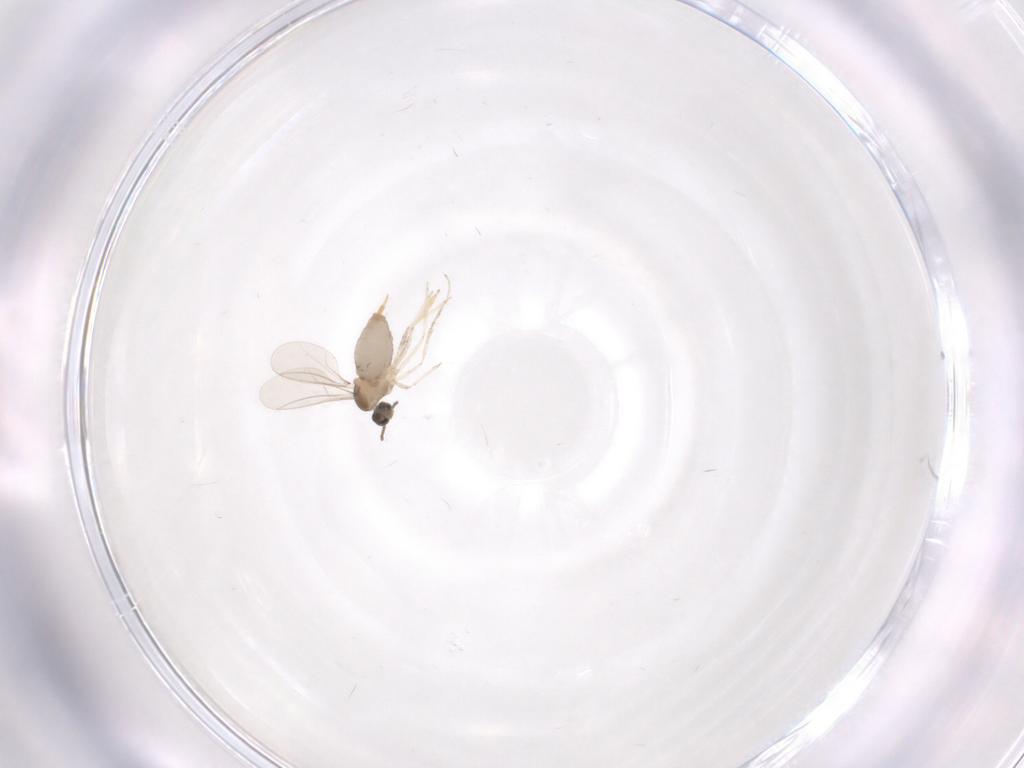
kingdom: Animalia
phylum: Arthropoda
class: Insecta
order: Diptera
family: Cecidomyiidae
